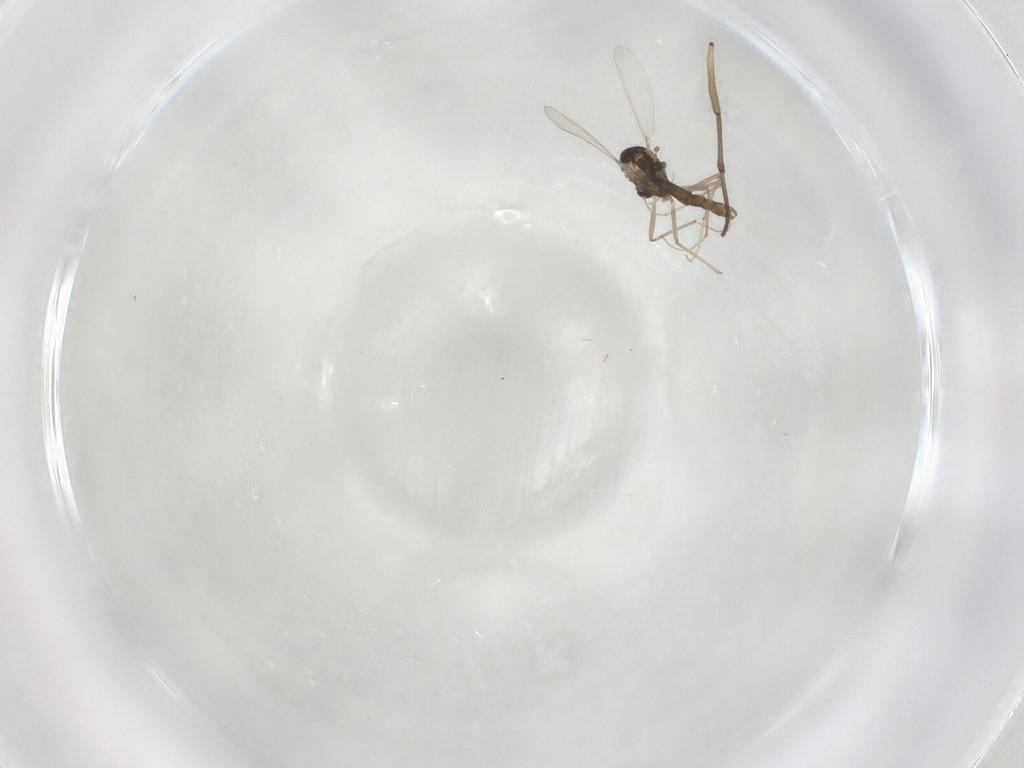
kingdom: Animalia
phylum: Arthropoda
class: Insecta
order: Diptera
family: Chironomidae
